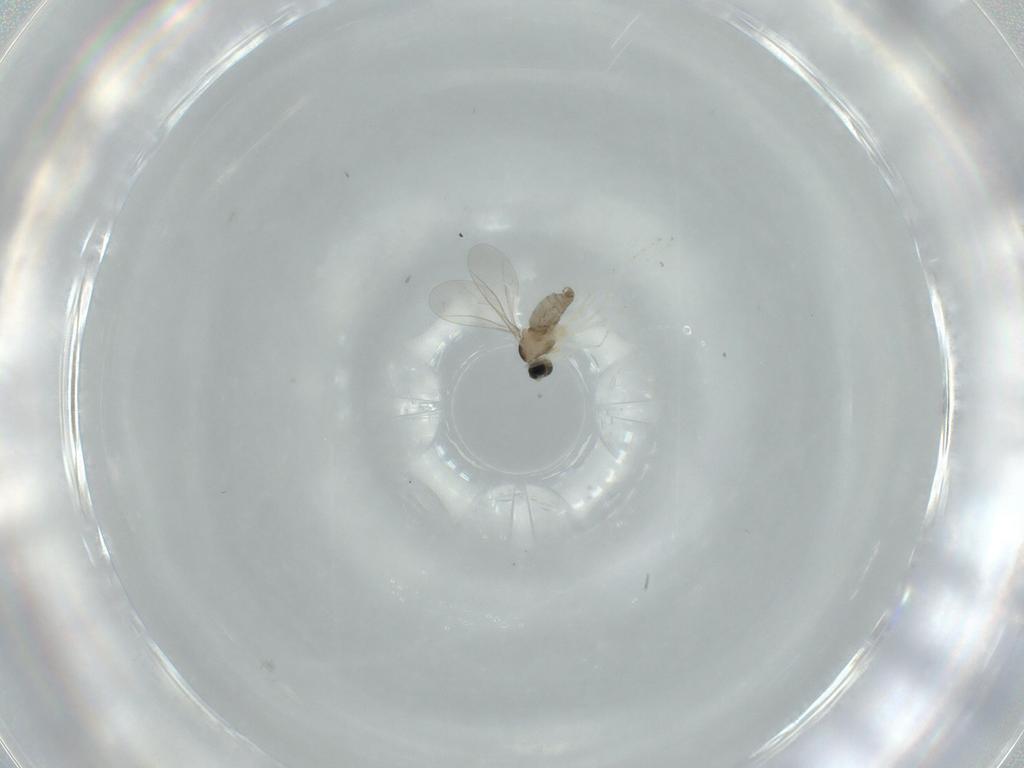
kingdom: Animalia
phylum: Arthropoda
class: Insecta
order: Diptera
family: Cecidomyiidae
